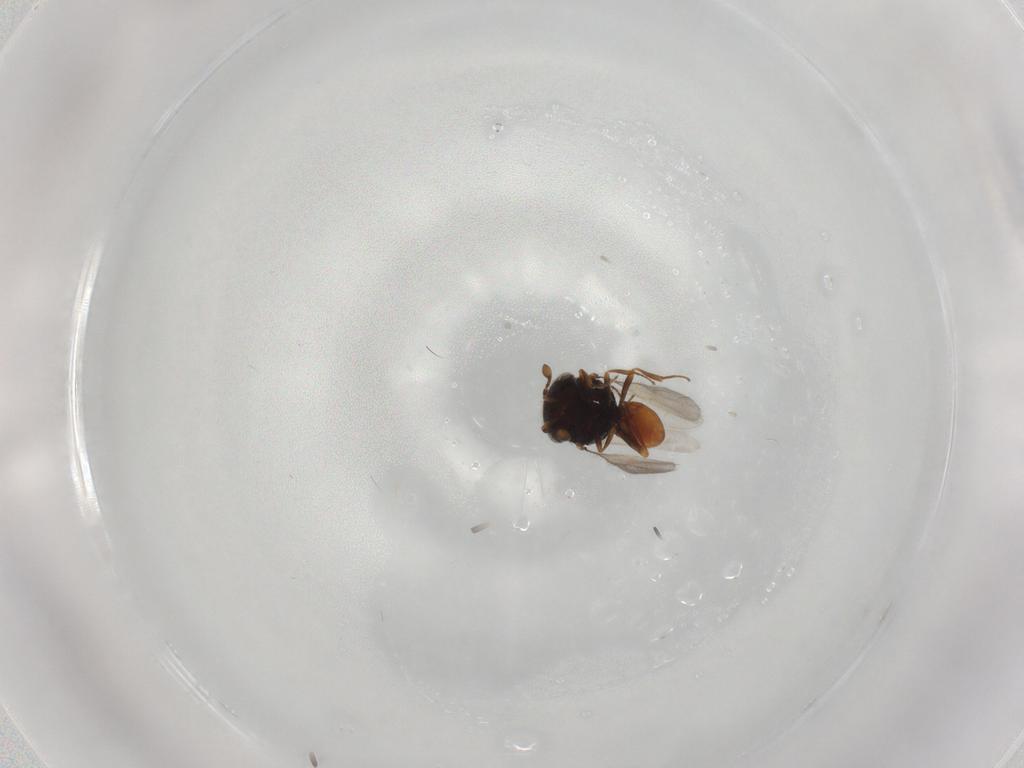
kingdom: Animalia
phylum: Arthropoda
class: Insecta
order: Hymenoptera
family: Scelionidae
